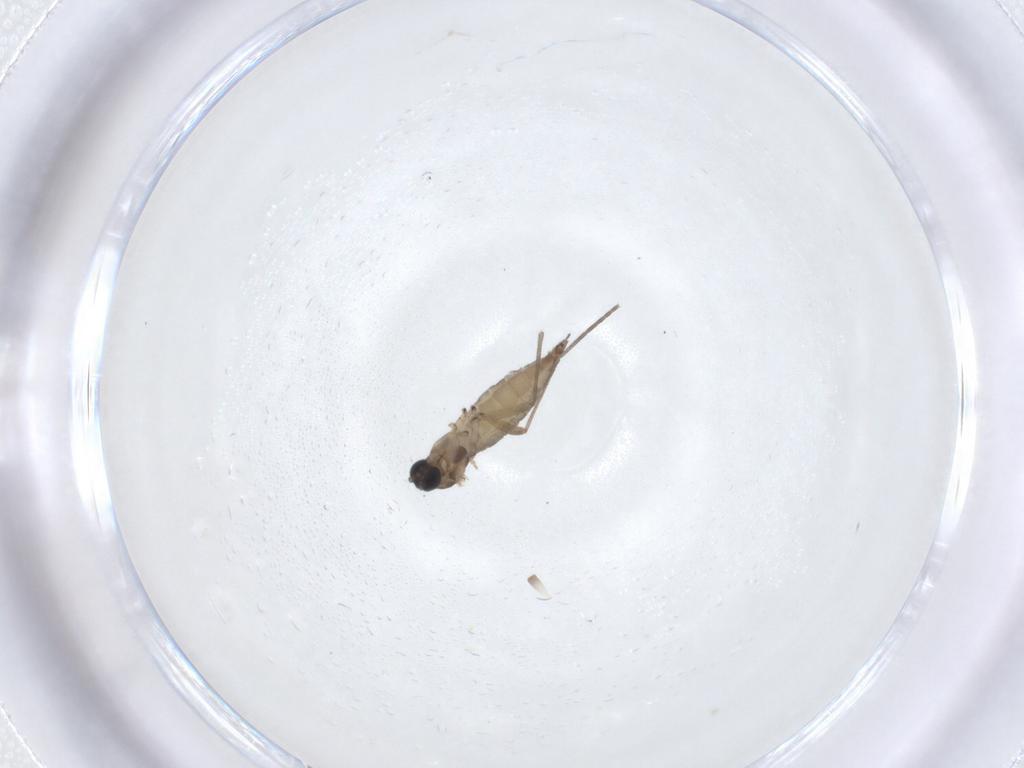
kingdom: Animalia
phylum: Arthropoda
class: Insecta
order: Diptera
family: Sciaridae
